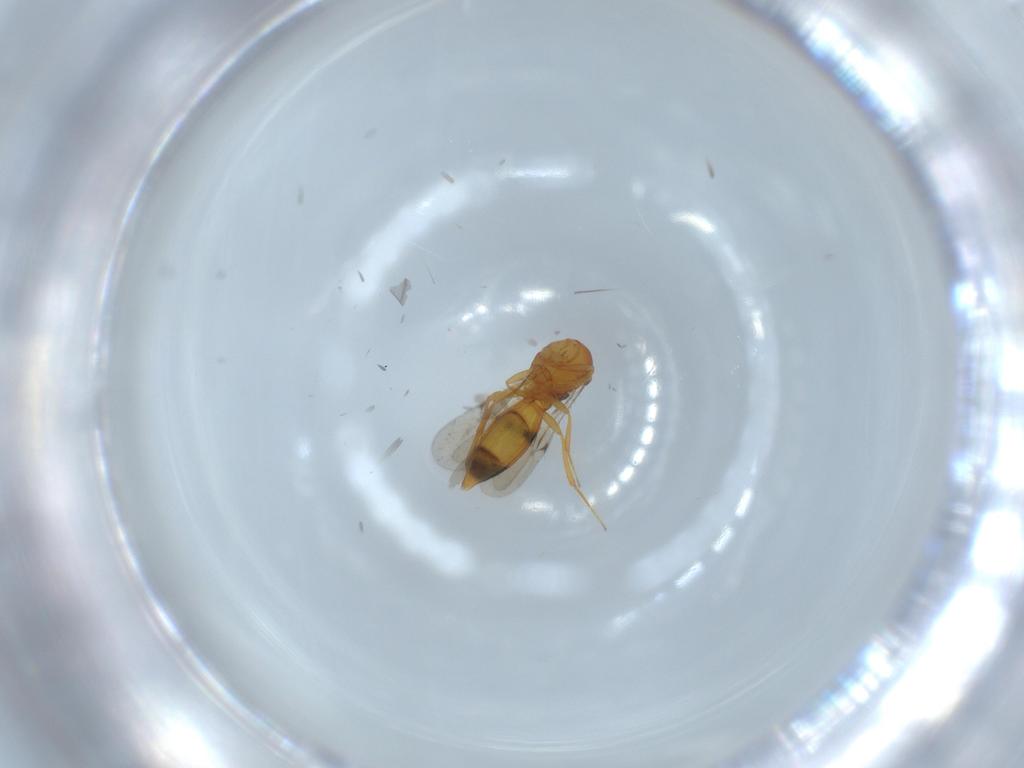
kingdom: Animalia
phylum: Arthropoda
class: Insecta
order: Hymenoptera
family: Scelionidae
